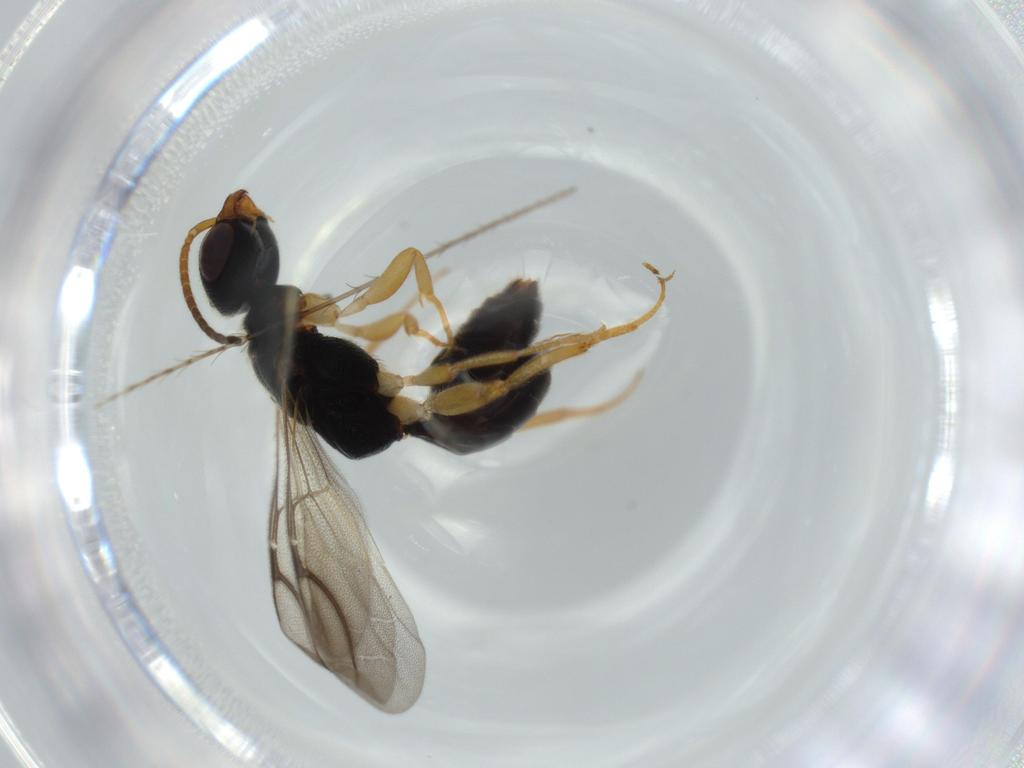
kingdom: Animalia
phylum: Arthropoda
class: Insecta
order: Hymenoptera
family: Bethylidae
